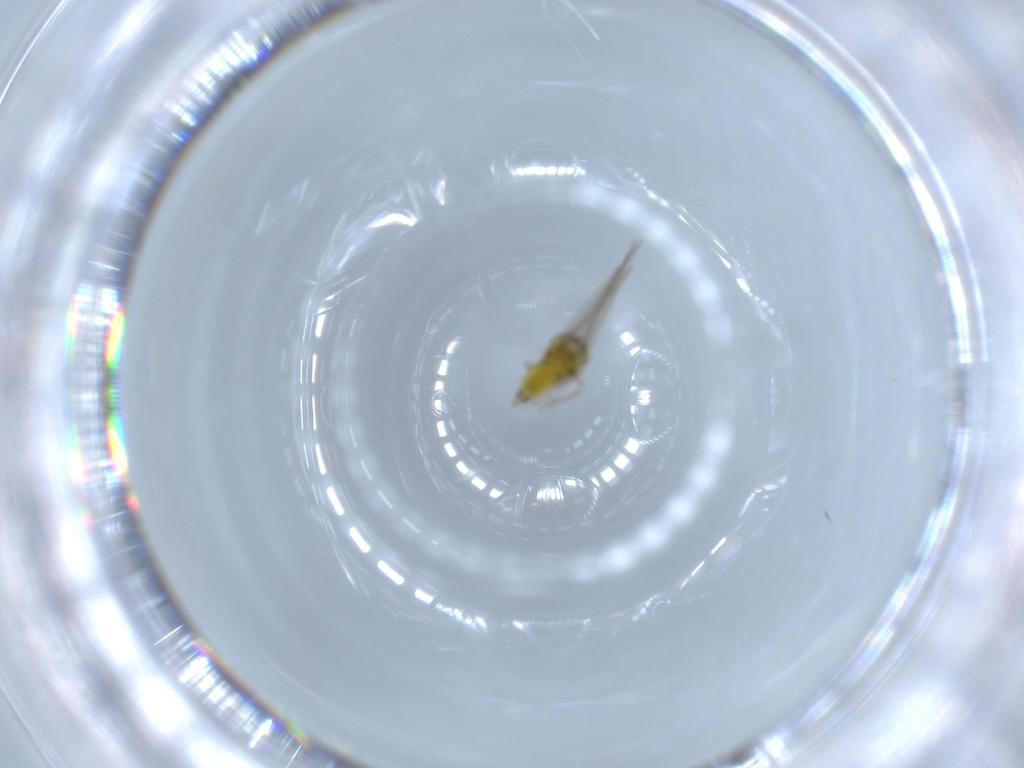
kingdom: Animalia
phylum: Arthropoda
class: Insecta
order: Hemiptera
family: Aleyrodidae
